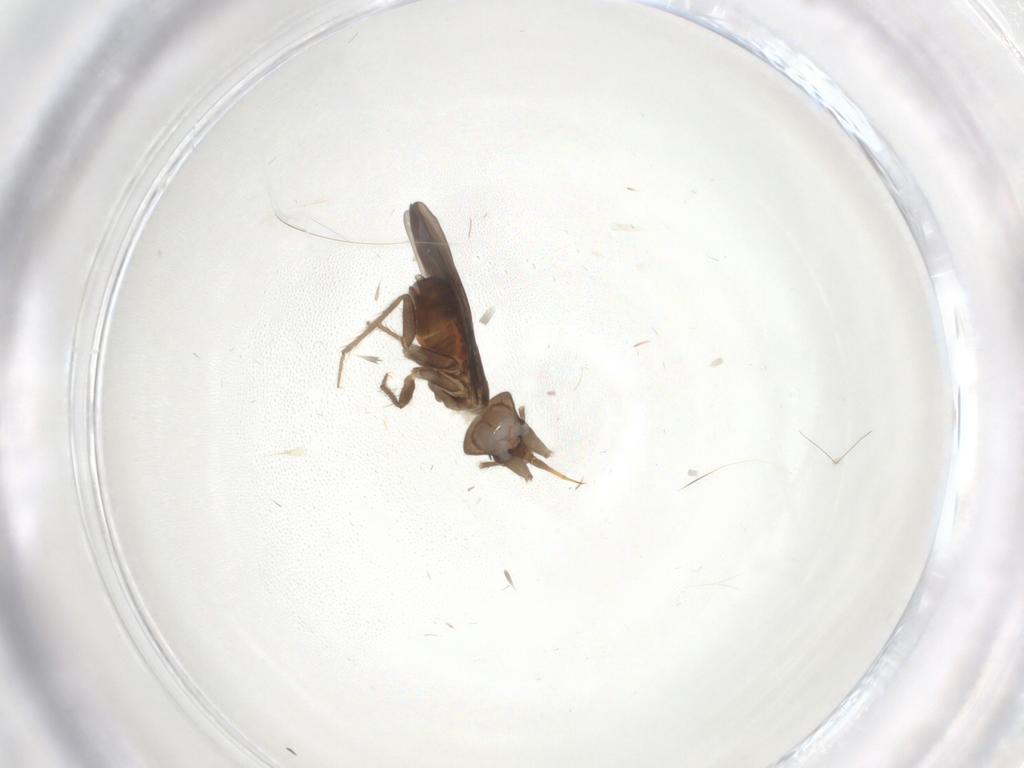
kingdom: Animalia
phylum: Arthropoda
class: Insecta
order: Hemiptera
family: Ceratocombidae
